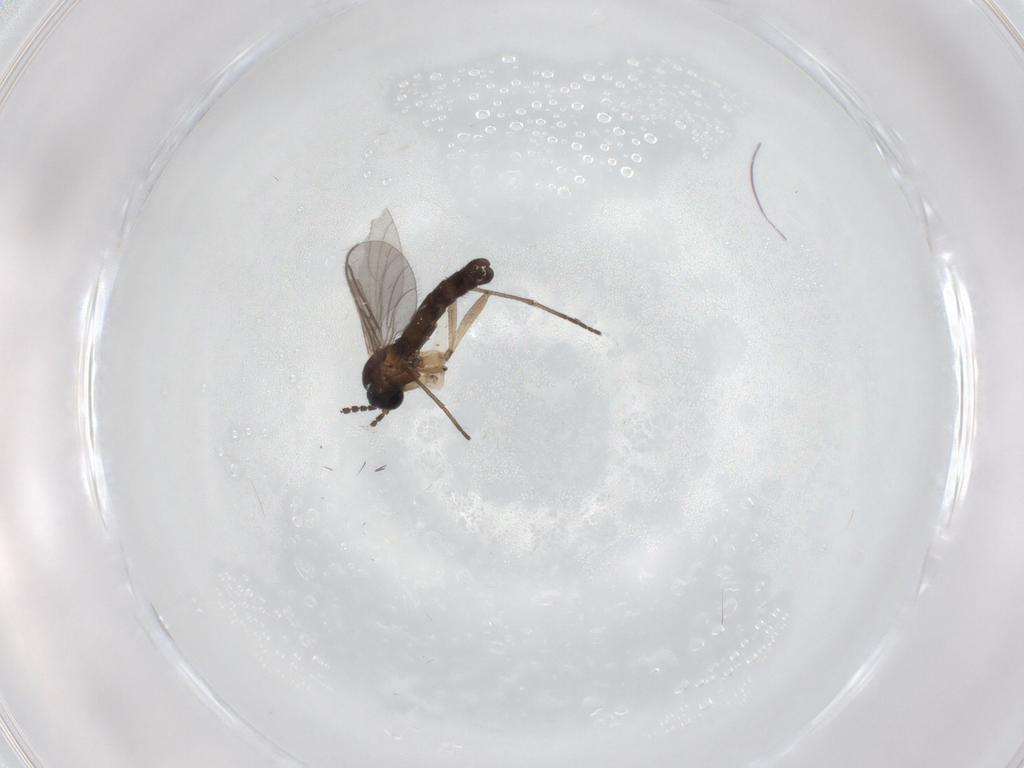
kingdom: Animalia
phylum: Arthropoda
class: Insecta
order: Diptera
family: Sciaridae
